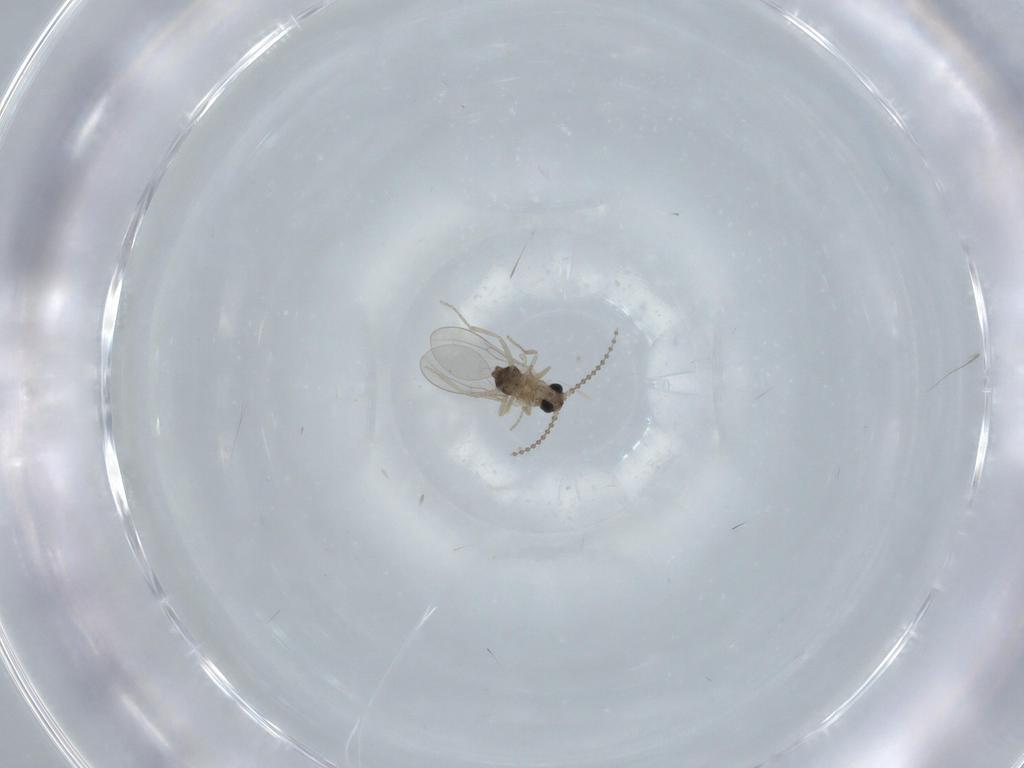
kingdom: Animalia
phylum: Arthropoda
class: Insecta
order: Diptera
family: Cecidomyiidae
